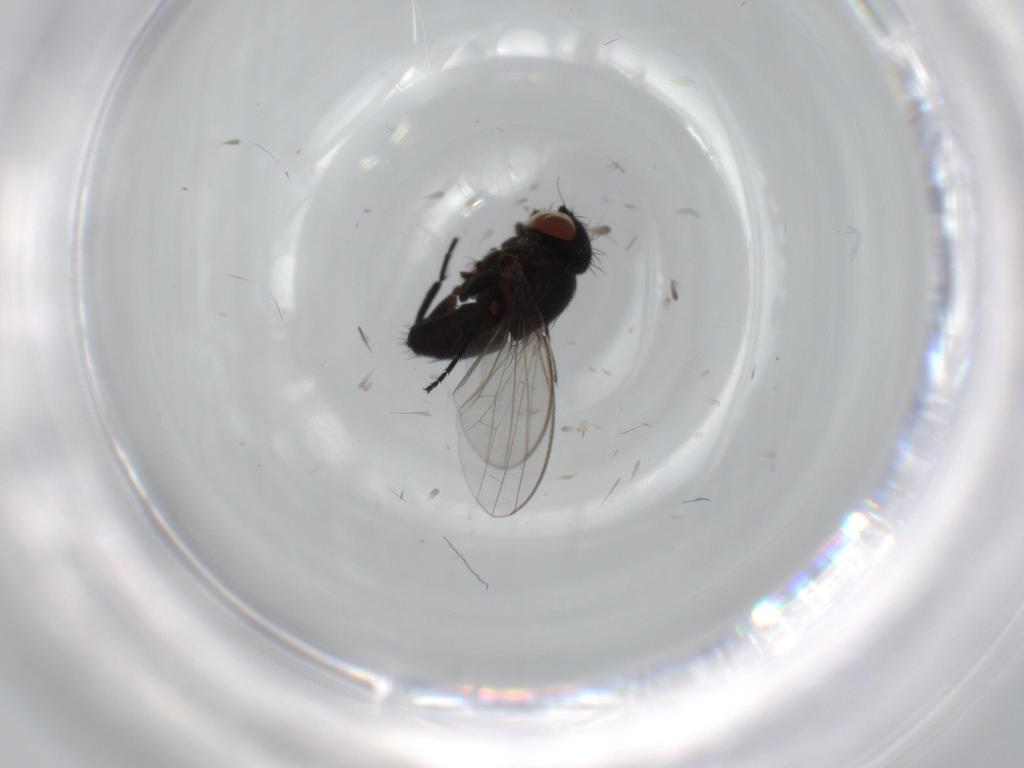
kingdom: Animalia
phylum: Arthropoda
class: Insecta
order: Diptera
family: Milichiidae
